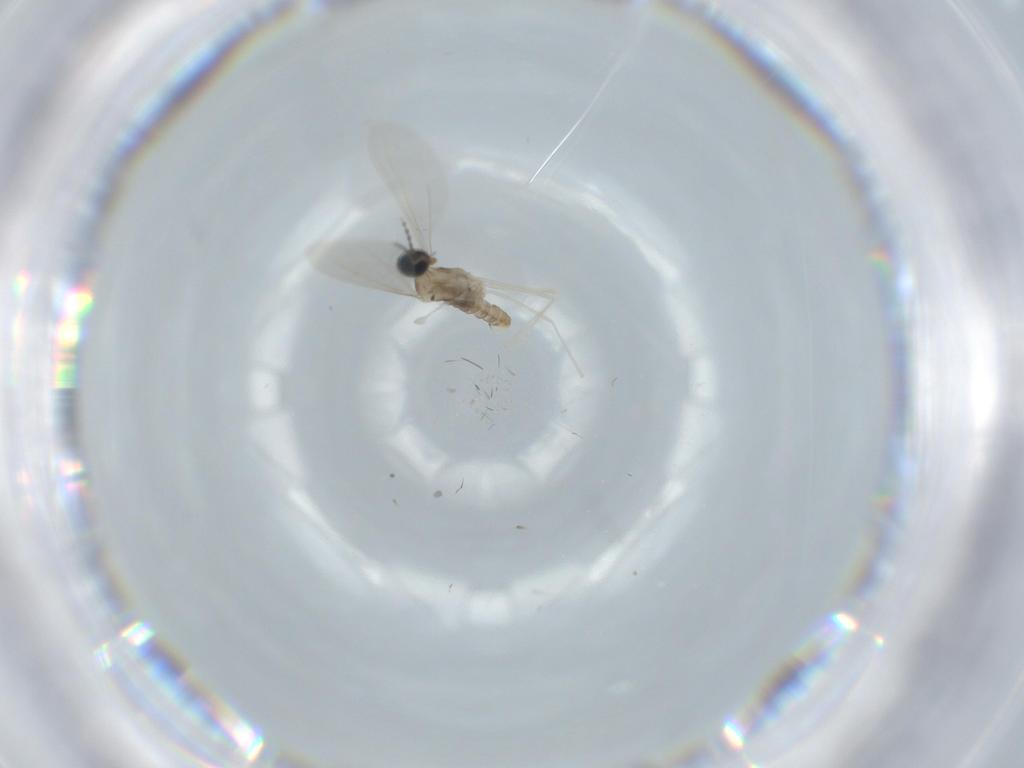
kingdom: Animalia
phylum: Arthropoda
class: Insecta
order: Diptera
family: Cecidomyiidae
